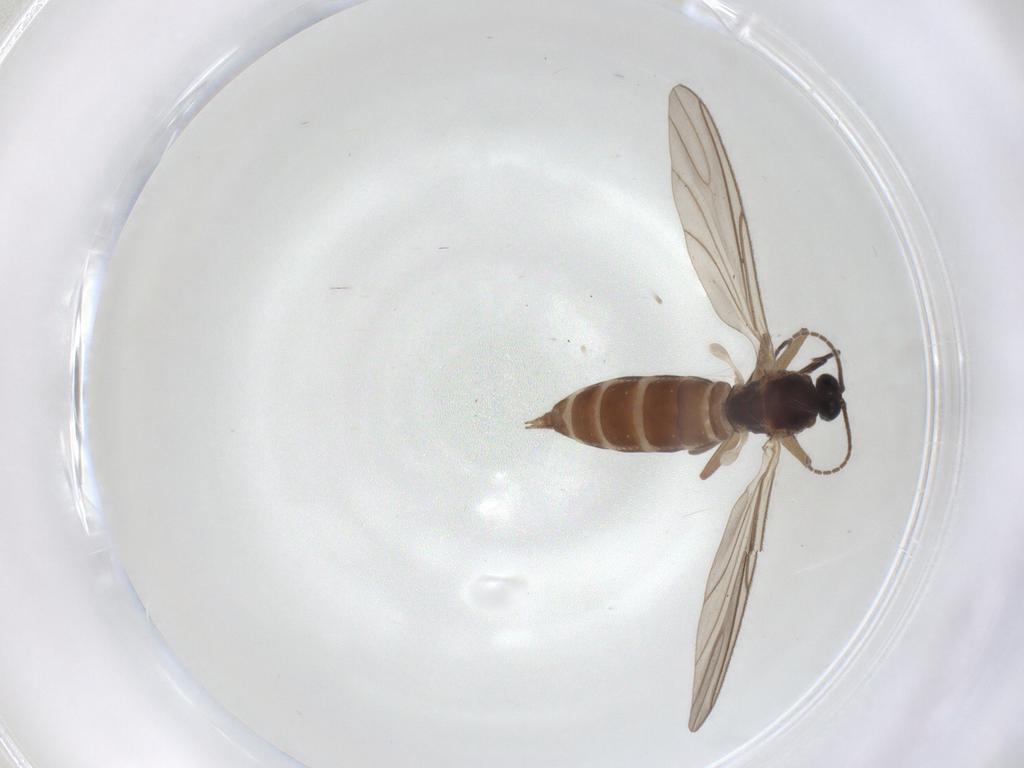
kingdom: Animalia
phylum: Arthropoda
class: Insecta
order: Diptera
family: Sciaridae
